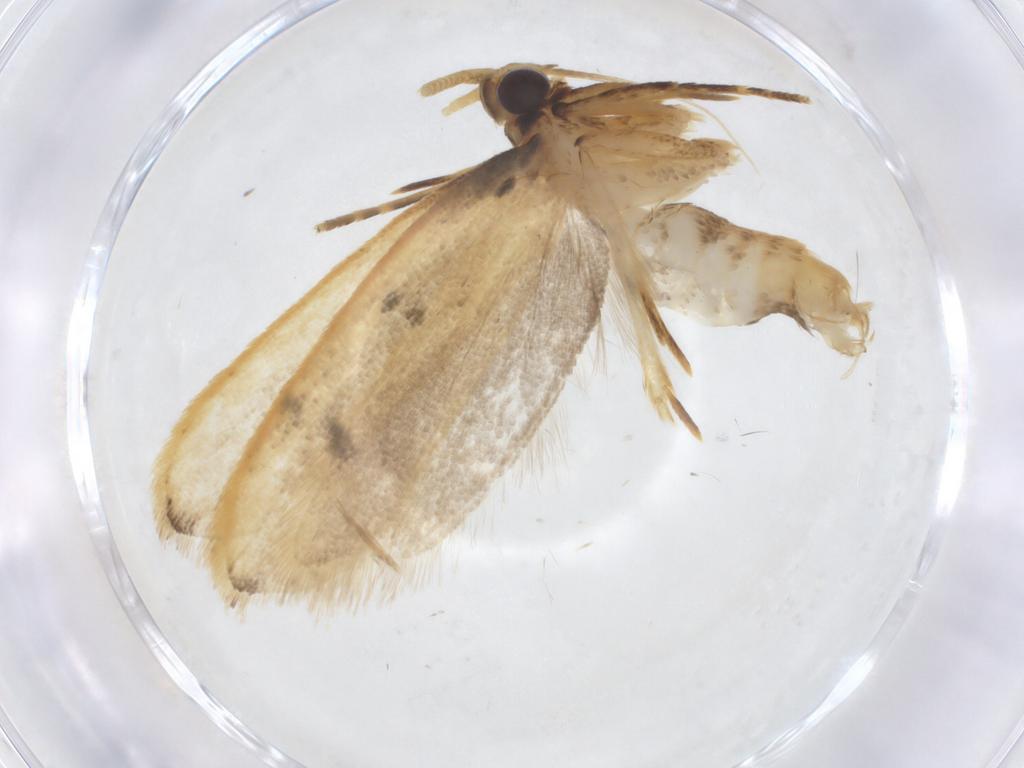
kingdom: Animalia
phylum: Arthropoda
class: Insecta
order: Lepidoptera
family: Lecithoceridae
